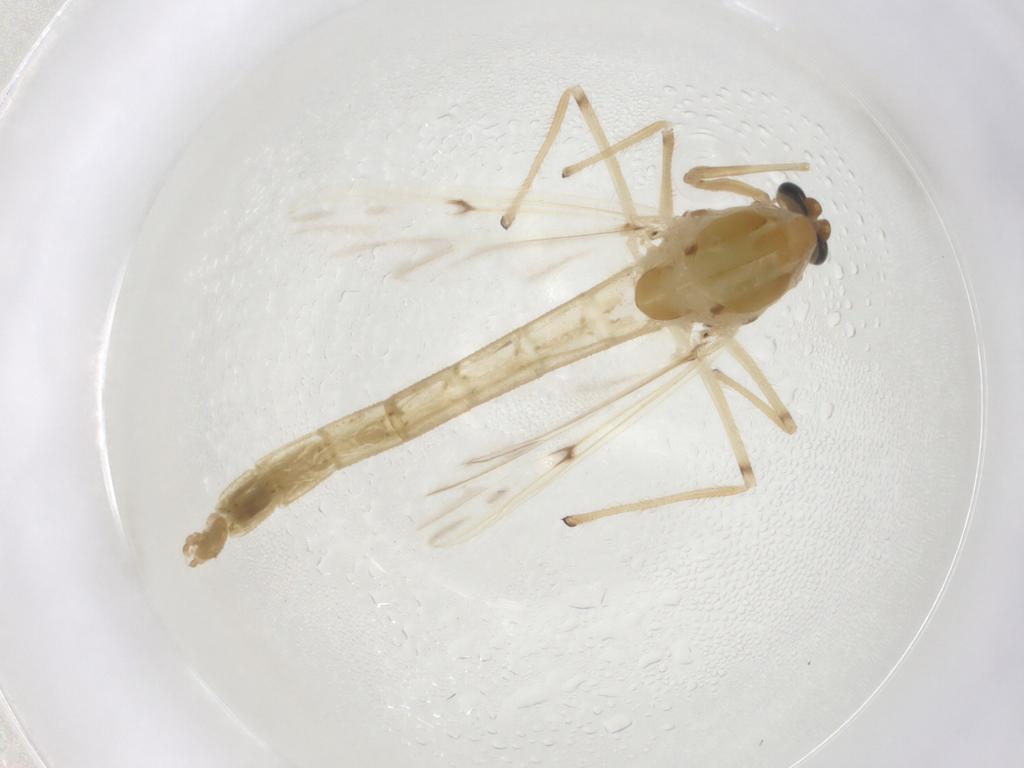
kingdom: Animalia
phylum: Arthropoda
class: Insecta
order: Diptera
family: Chironomidae
